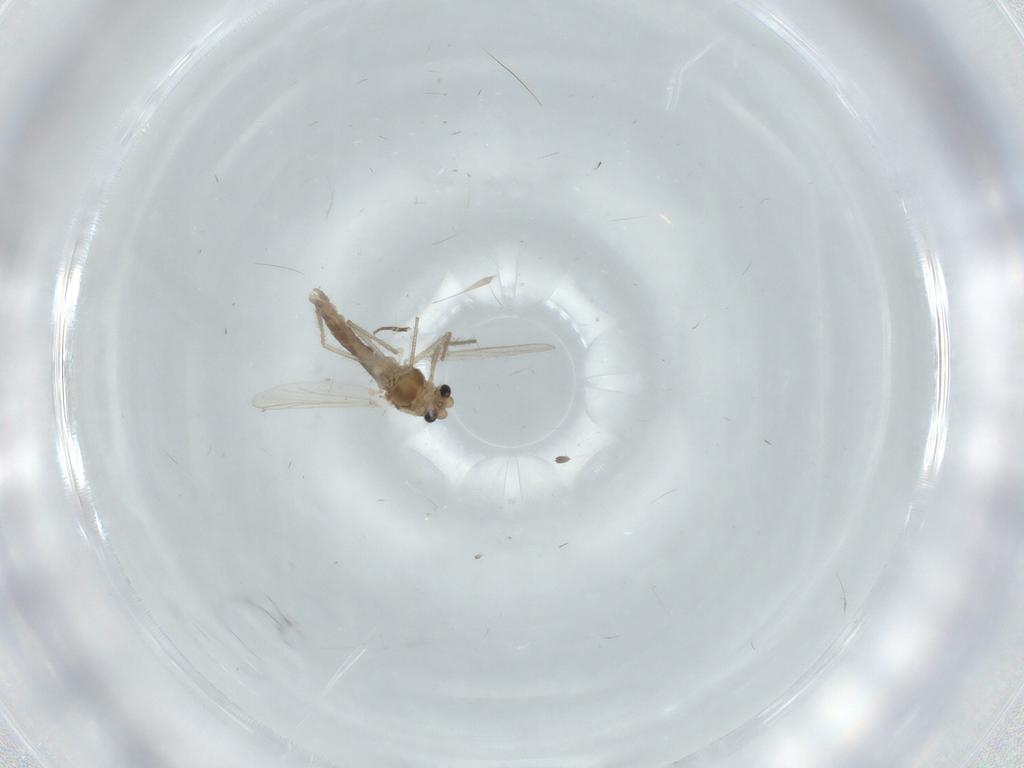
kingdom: Animalia
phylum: Arthropoda
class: Insecta
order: Diptera
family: Chironomidae
